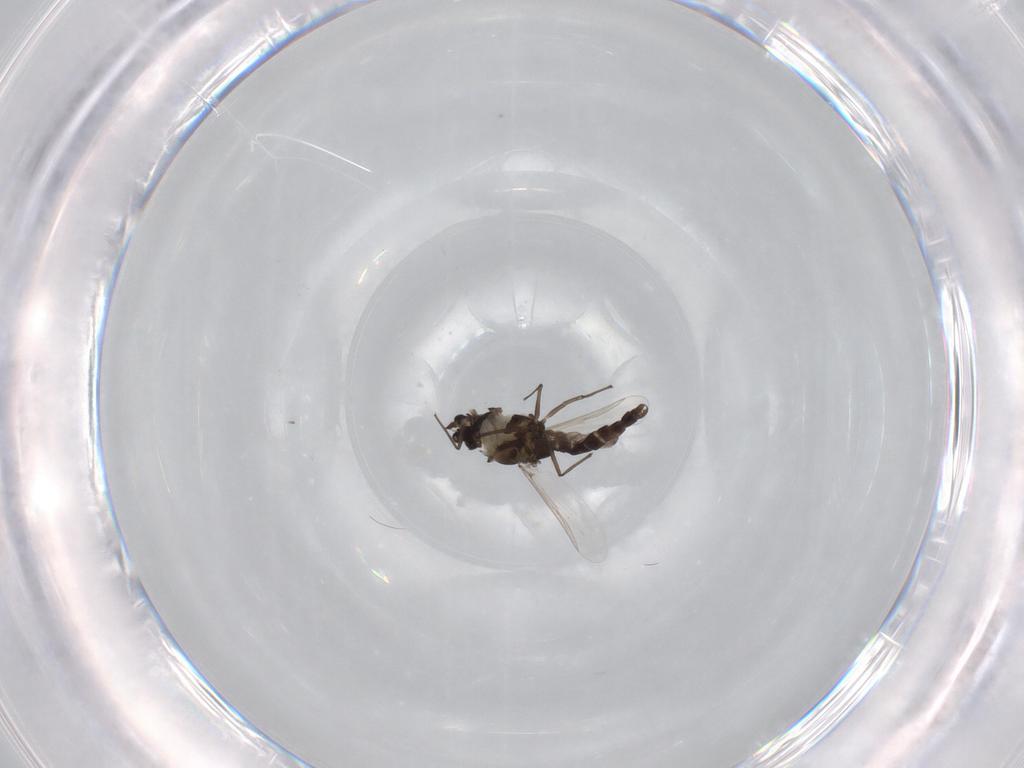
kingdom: Animalia
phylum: Arthropoda
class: Insecta
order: Diptera
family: Chironomidae
